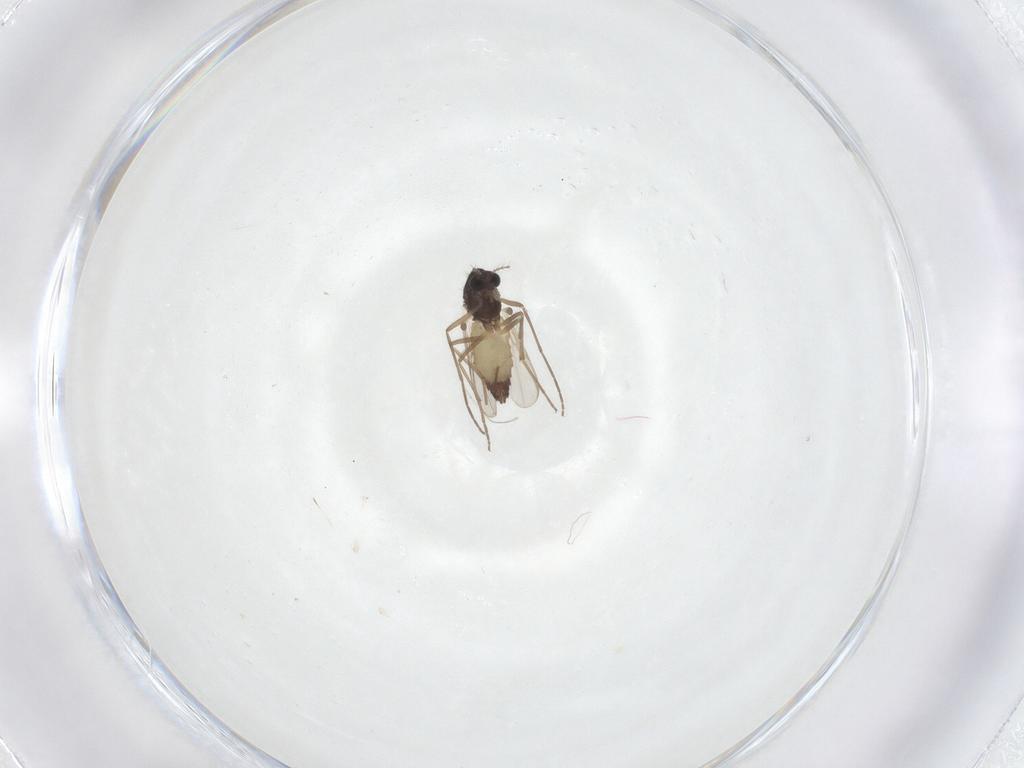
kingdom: Animalia
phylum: Arthropoda
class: Insecta
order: Diptera
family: Chironomidae
